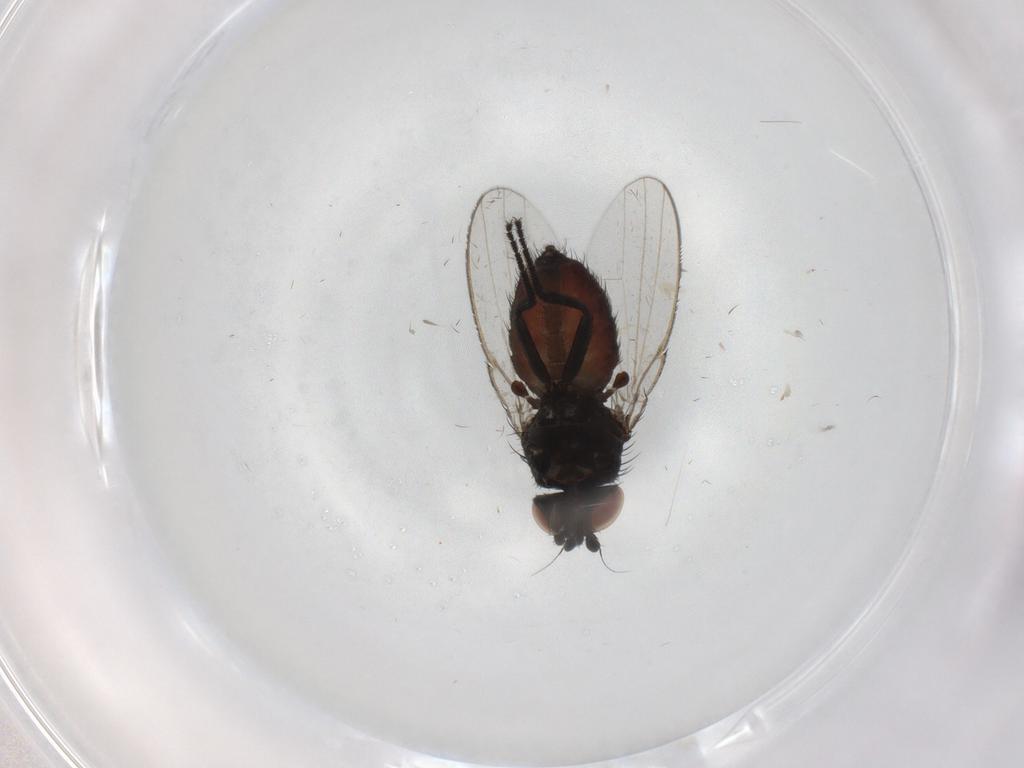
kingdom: Animalia
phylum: Arthropoda
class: Insecta
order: Diptera
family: Milichiidae
